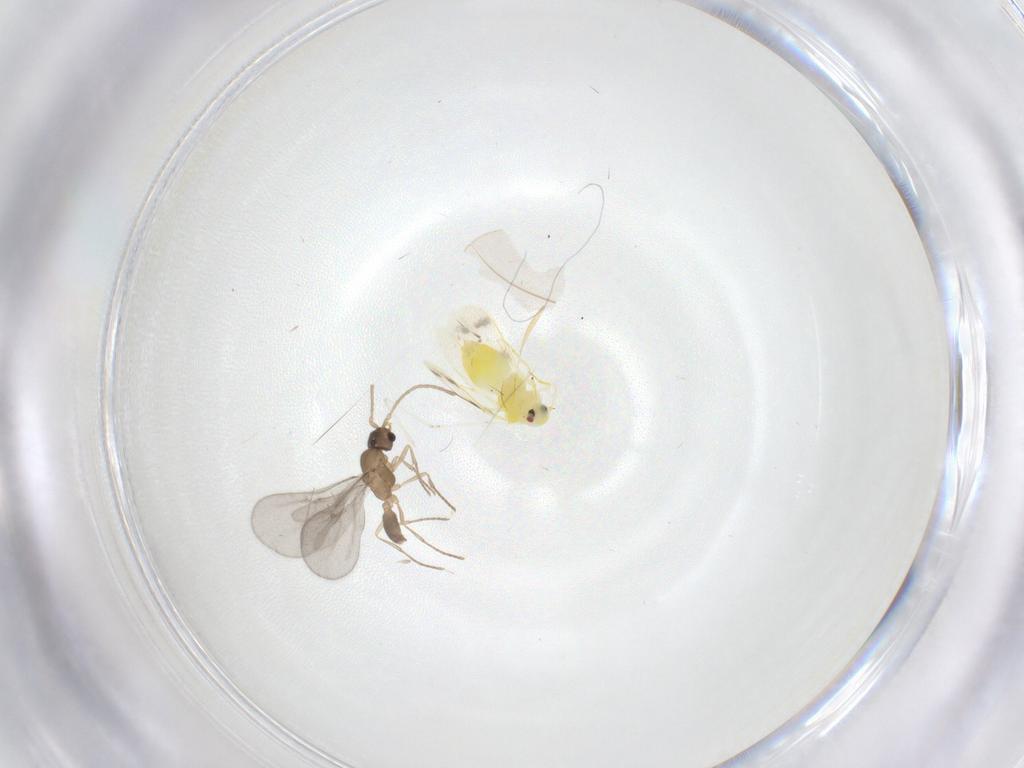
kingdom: Animalia
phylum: Arthropoda
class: Insecta
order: Hemiptera
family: Aleyrodidae
